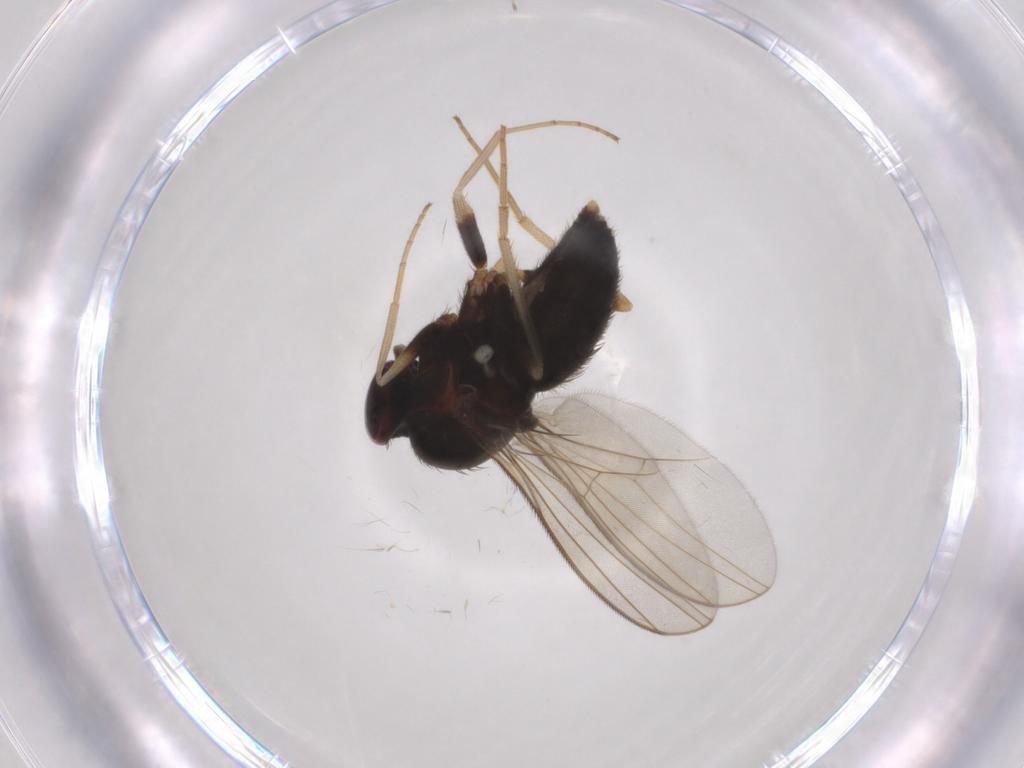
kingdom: Animalia
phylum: Arthropoda
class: Insecta
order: Diptera
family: Dolichopodidae
